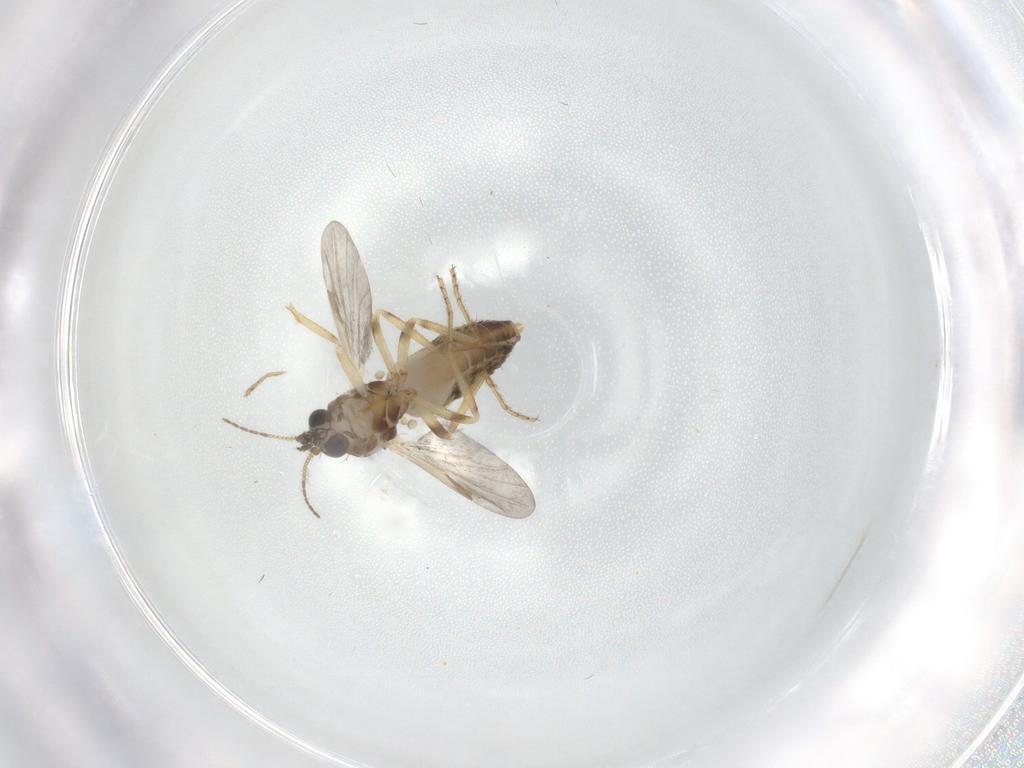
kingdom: Animalia
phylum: Arthropoda
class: Insecta
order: Diptera
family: Ceratopogonidae
